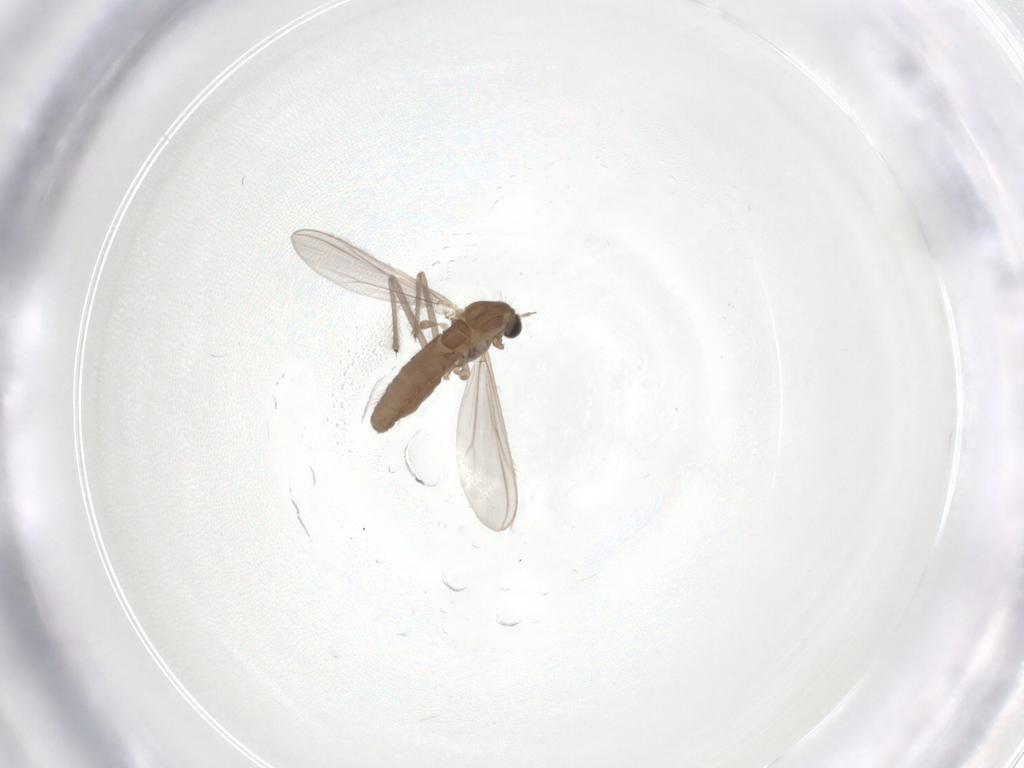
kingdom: Animalia
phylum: Arthropoda
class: Insecta
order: Diptera
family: Chironomidae
